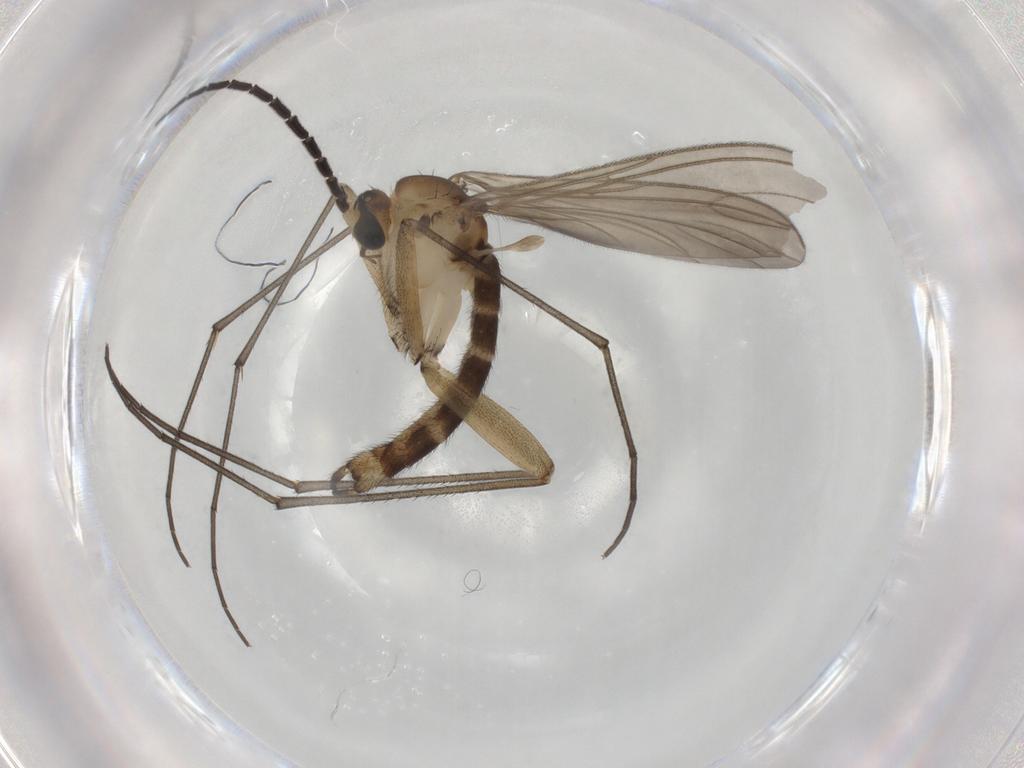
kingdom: Animalia
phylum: Arthropoda
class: Insecta
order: Diptera
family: Sciaridae
